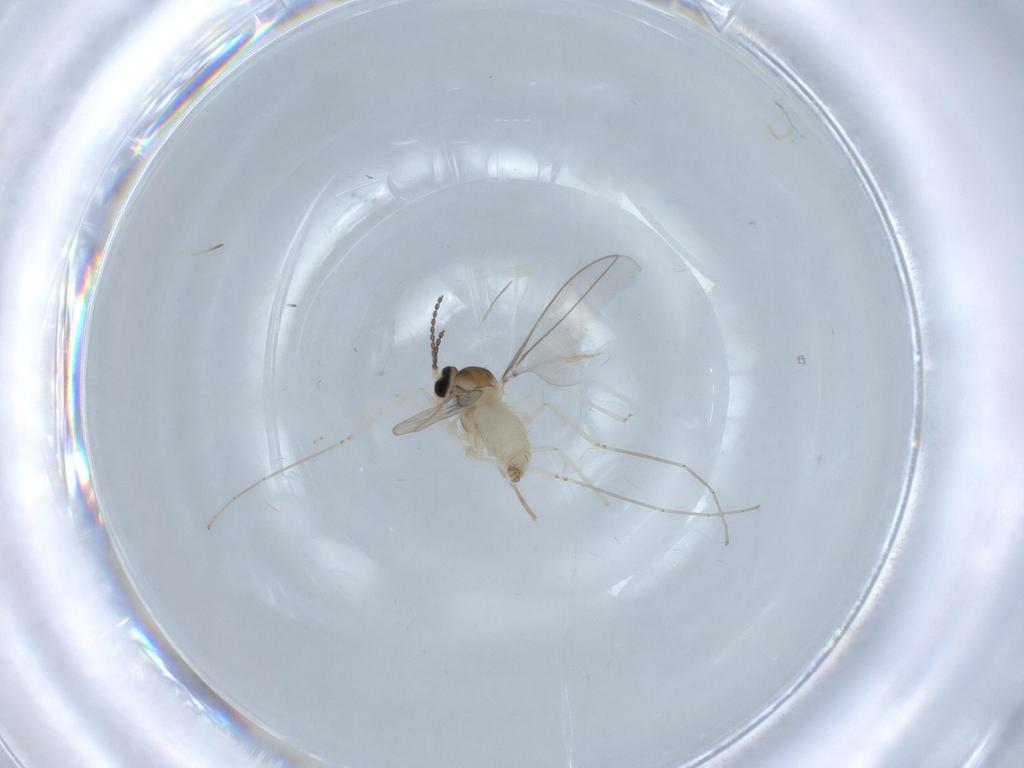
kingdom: Animalia
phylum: Arthropoda
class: Insecta
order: Diptera
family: Cecidomyiidae
